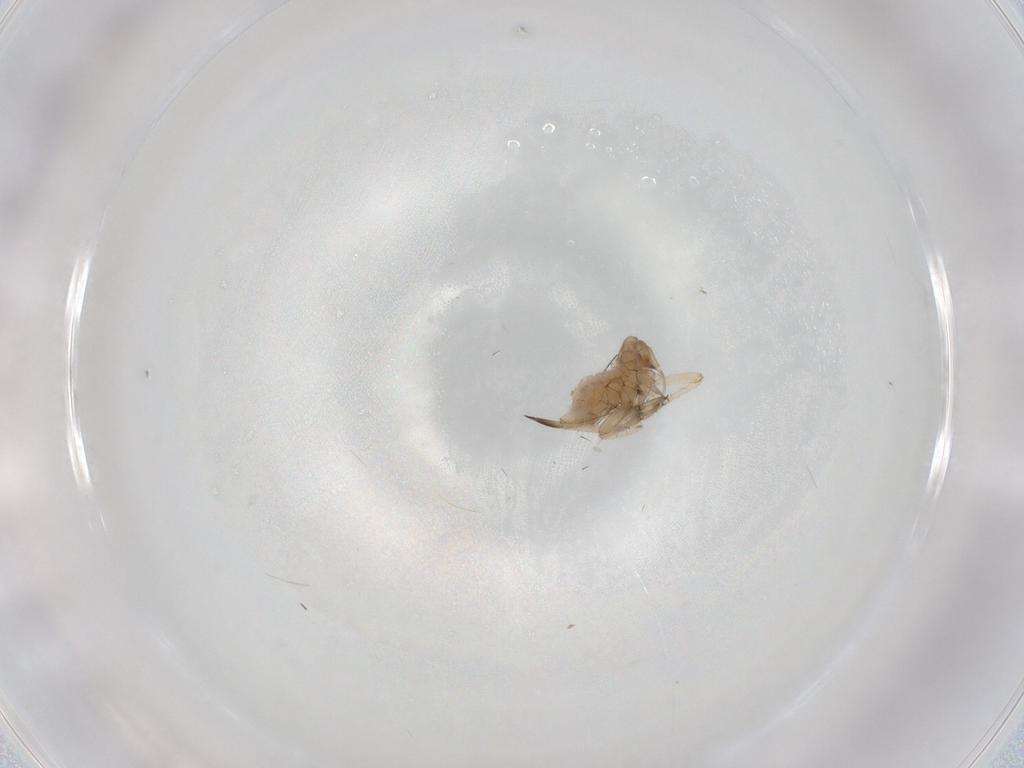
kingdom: Animalia
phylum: Arthropoda
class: Insecta
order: Hemiptera
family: Aphididae
